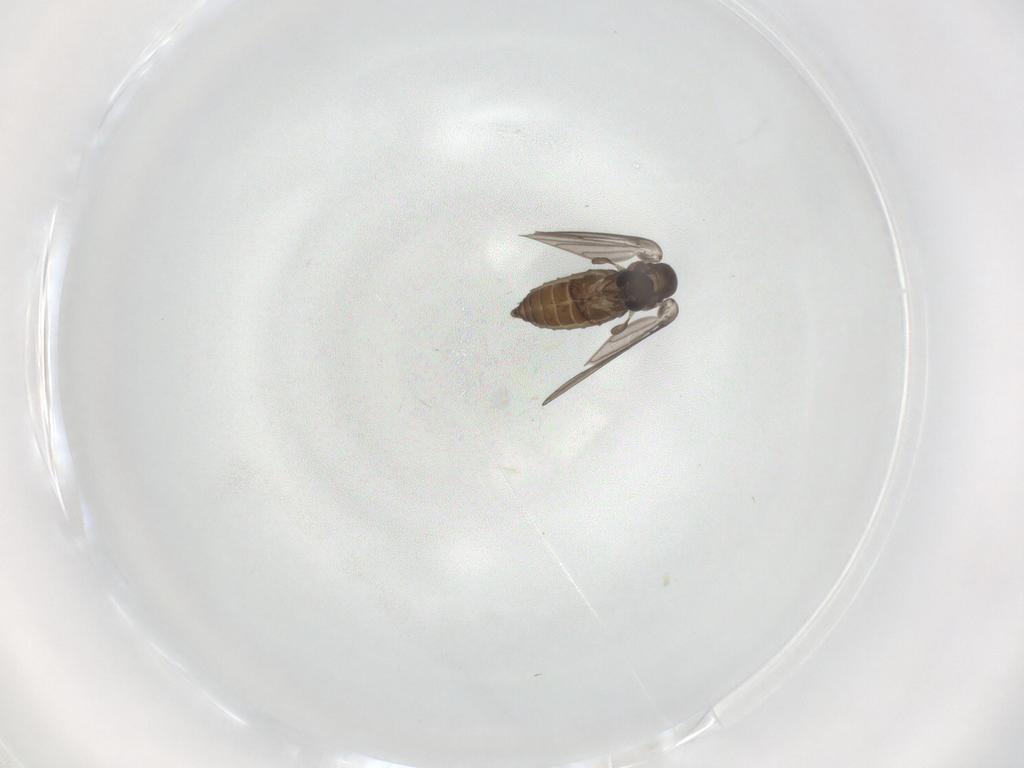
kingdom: Animalia
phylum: Arthropoda
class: Insecta
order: Diptera
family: Cecidomyiidae
